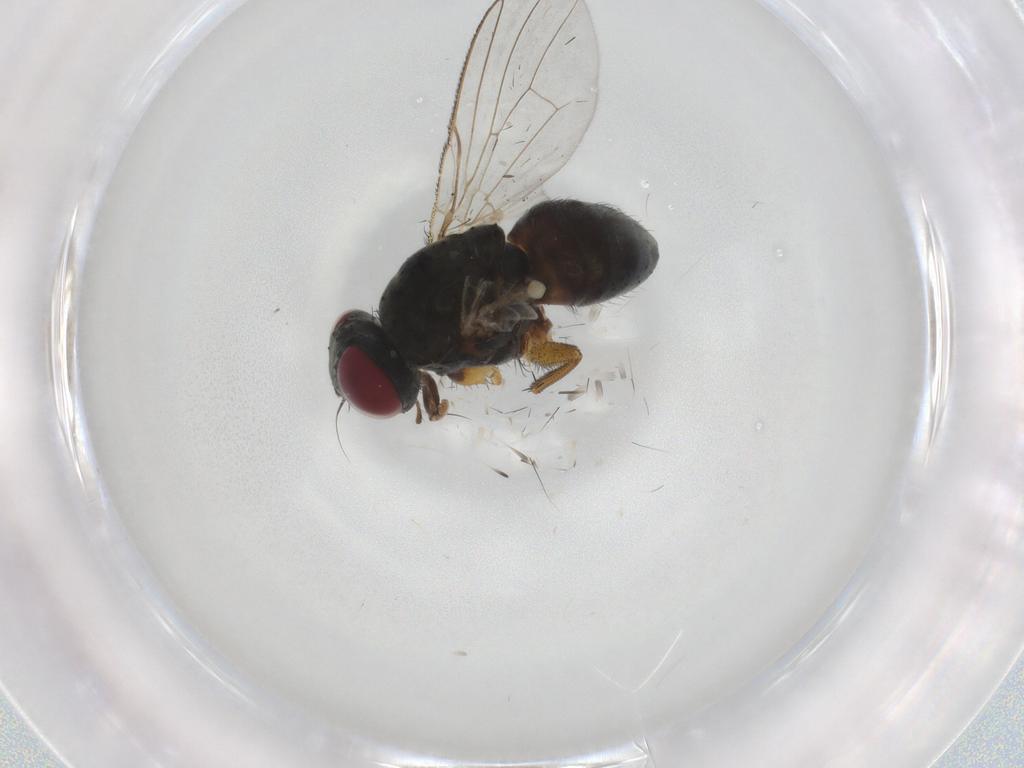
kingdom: Animalia
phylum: Arthropoda
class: Insecta
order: Diptera
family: Muscidae
